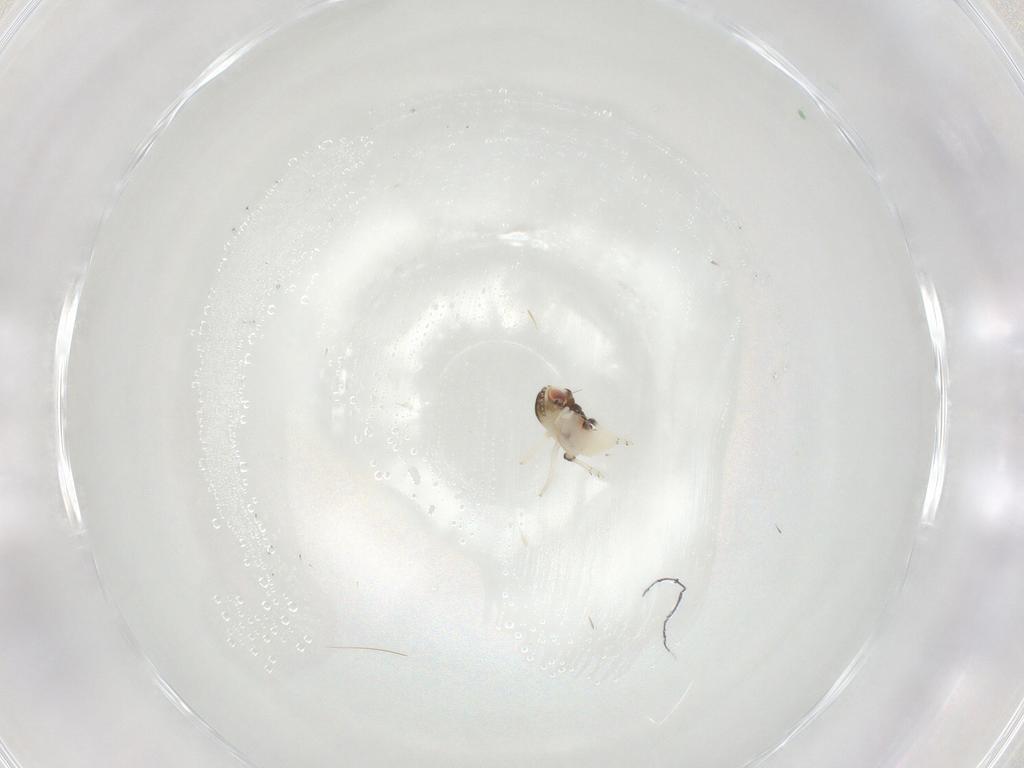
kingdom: Animalia
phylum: Arthropoda
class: Insecta
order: Hemiptera
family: Nogodinidae
